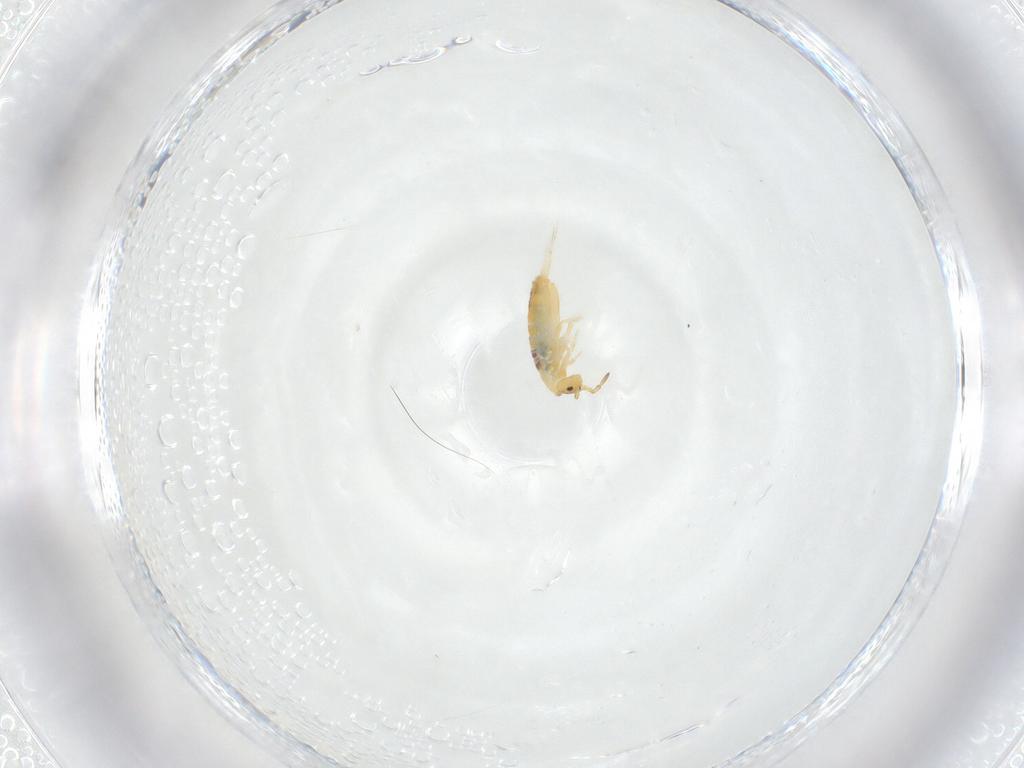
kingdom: Animalia
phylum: Arthropoda
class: Collembola
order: Entomobryomorpha
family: Entomobryidae
